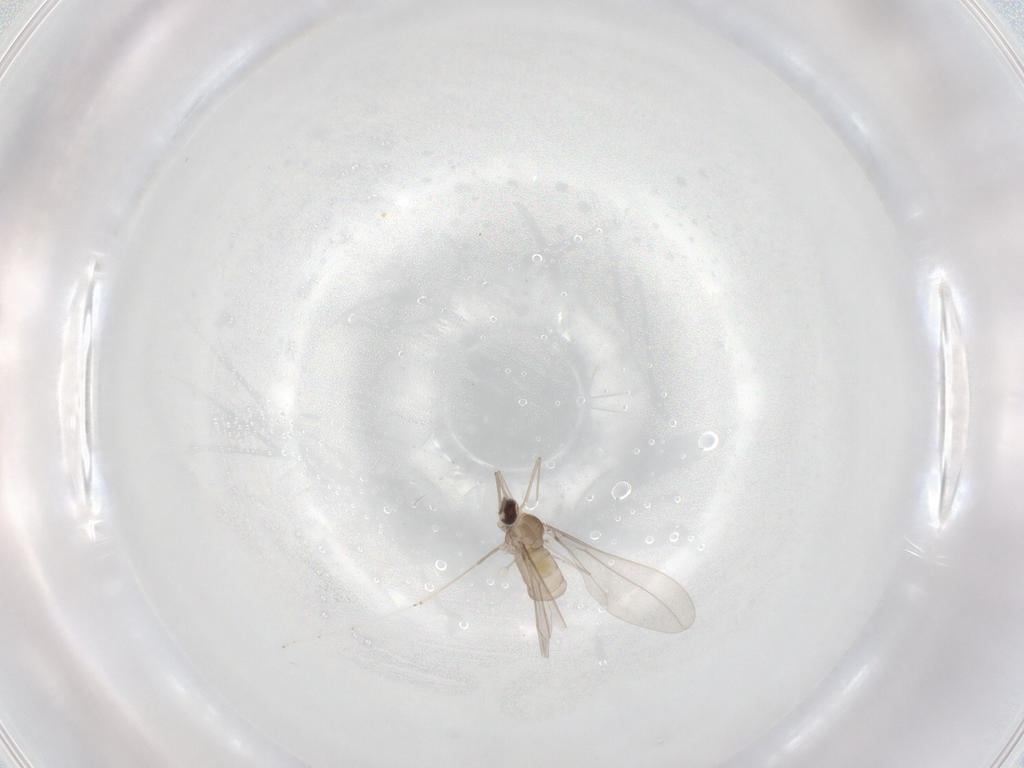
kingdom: Animalia
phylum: Arthropoda
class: Insecta
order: Diptera
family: Cecidomyiidae
